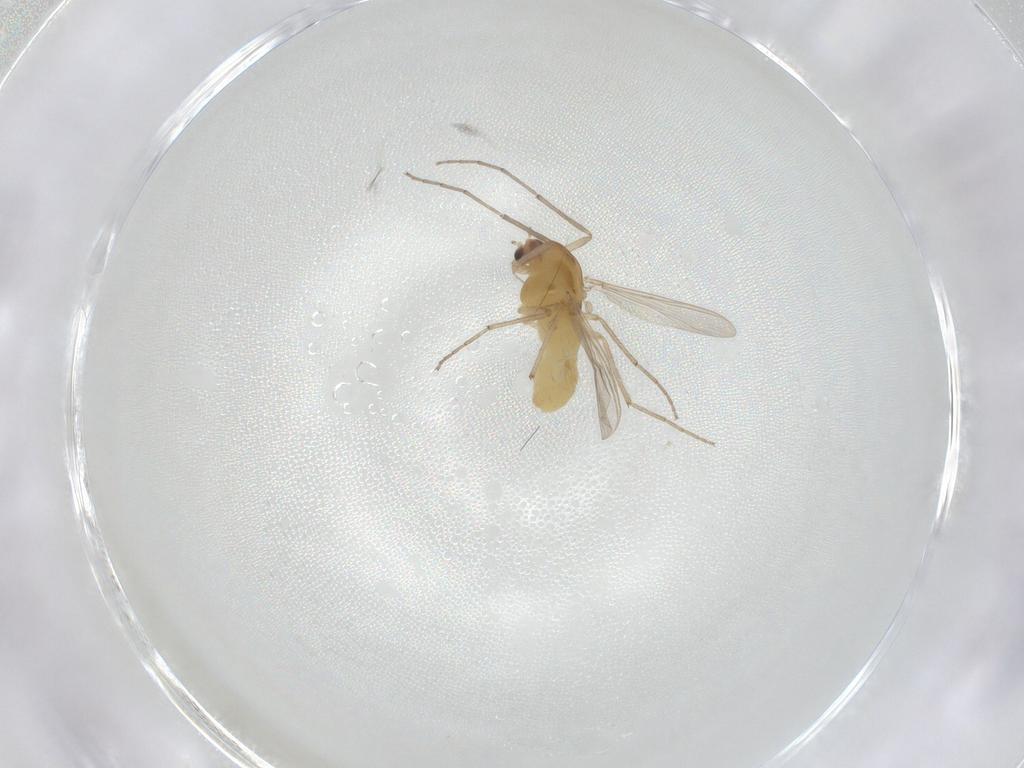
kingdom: Animalia
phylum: Arthropoda
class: Insecta
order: Diptera
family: Chironomidae
